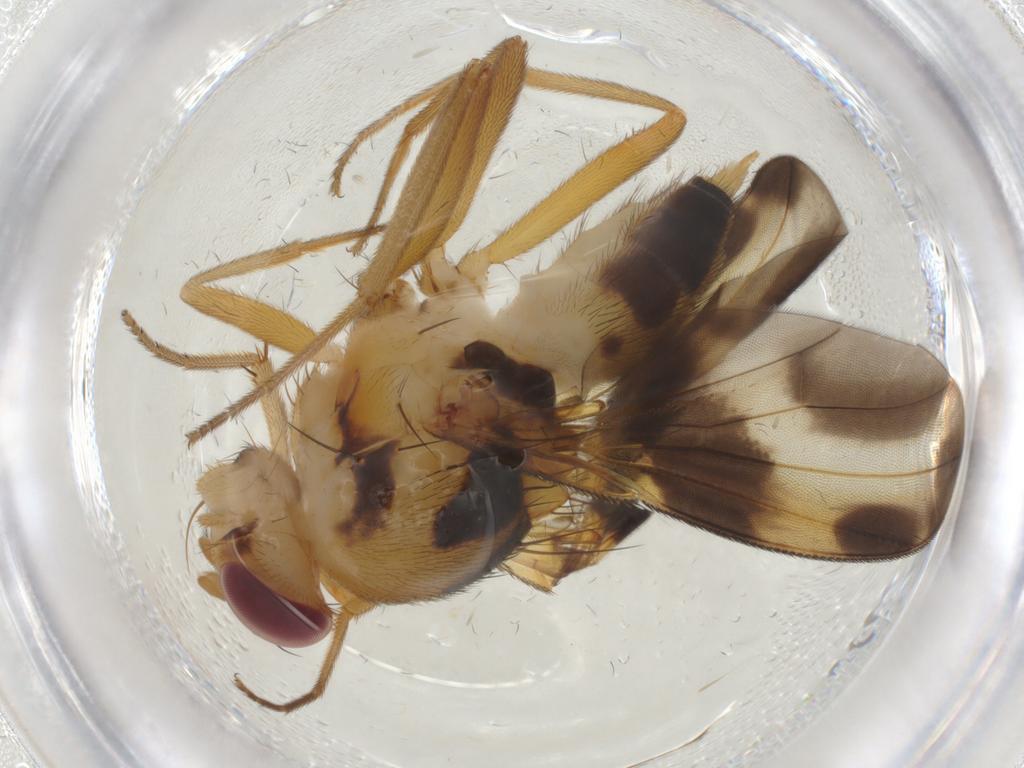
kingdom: Animalia
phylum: Arthropoda
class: Insecta
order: Diptera
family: Clusiidae
